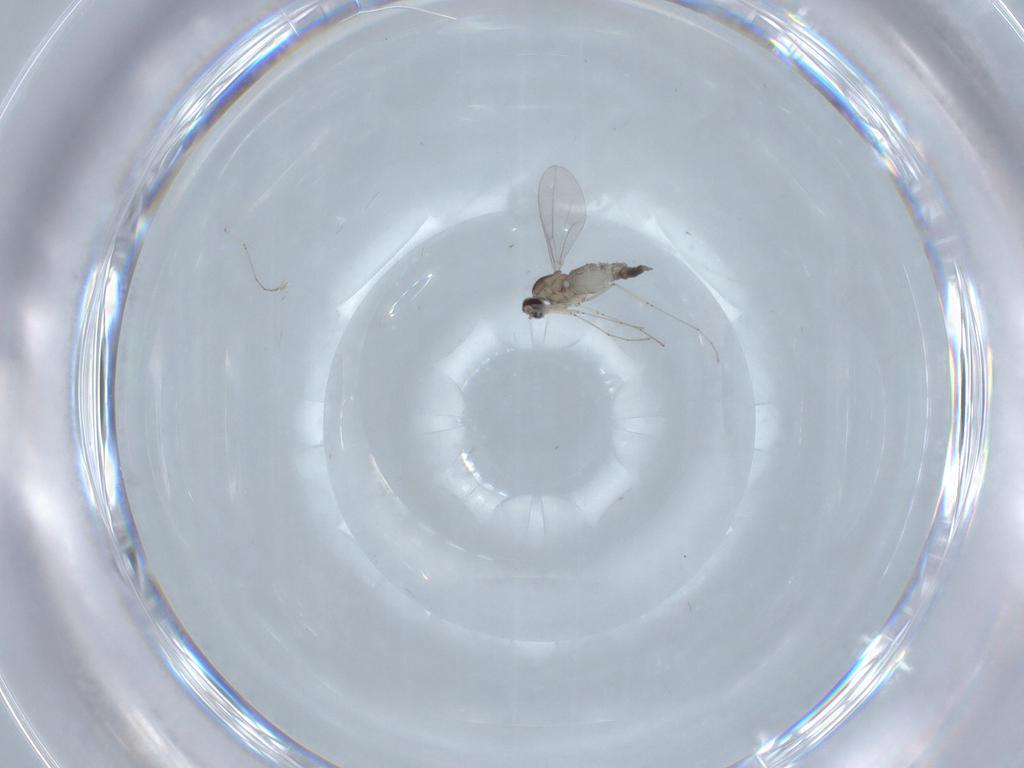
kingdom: Animalia
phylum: Arthropoda
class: Insecta
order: Diptera
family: Cecidomyiidae
